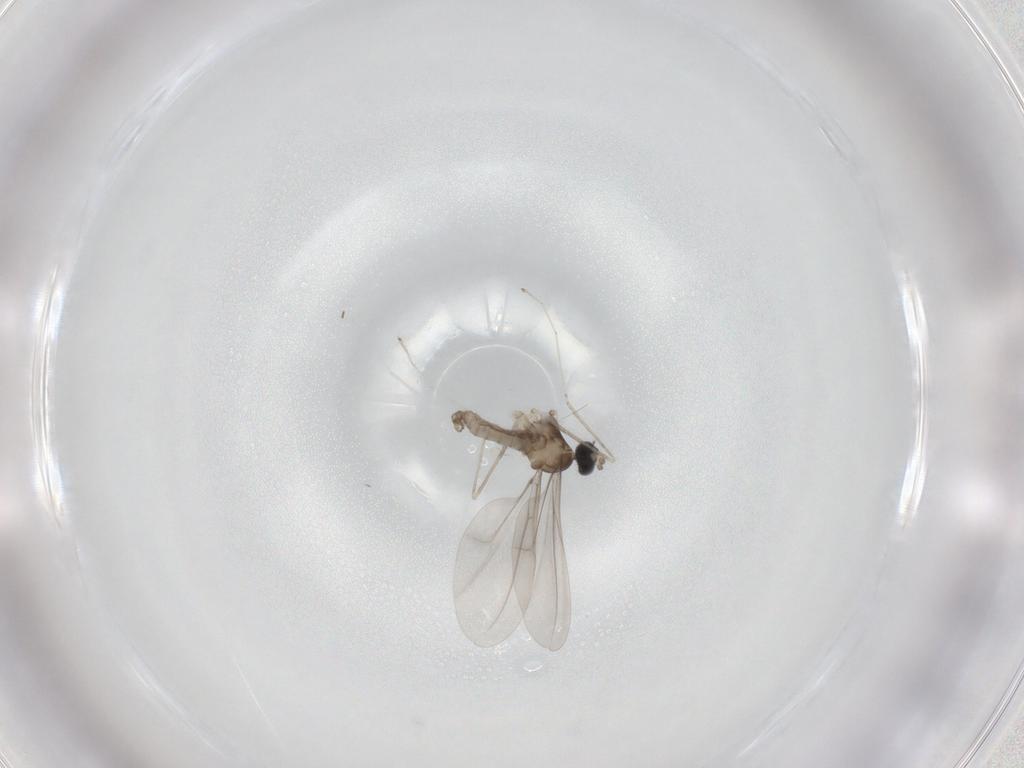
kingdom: Animalia
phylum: Arthropoda
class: Insecta
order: Diptera
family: Cecidomyiidae
